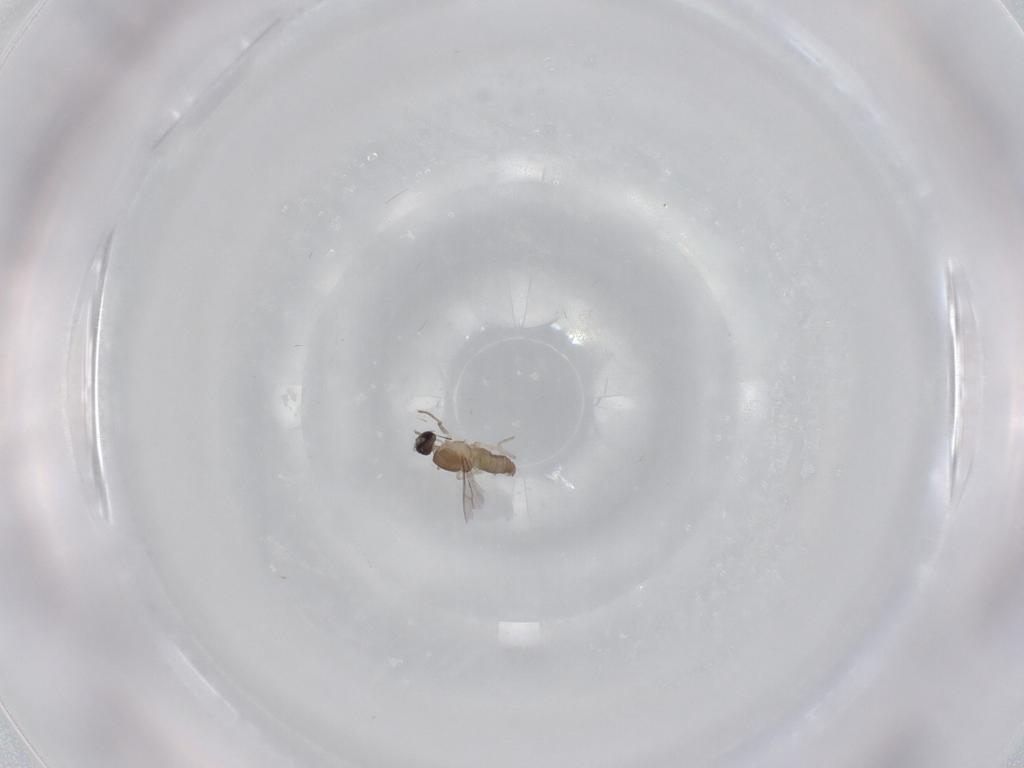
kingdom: Animalia
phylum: Arthropoda
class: Insecta
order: Diptera
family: Cecidomyiidae
